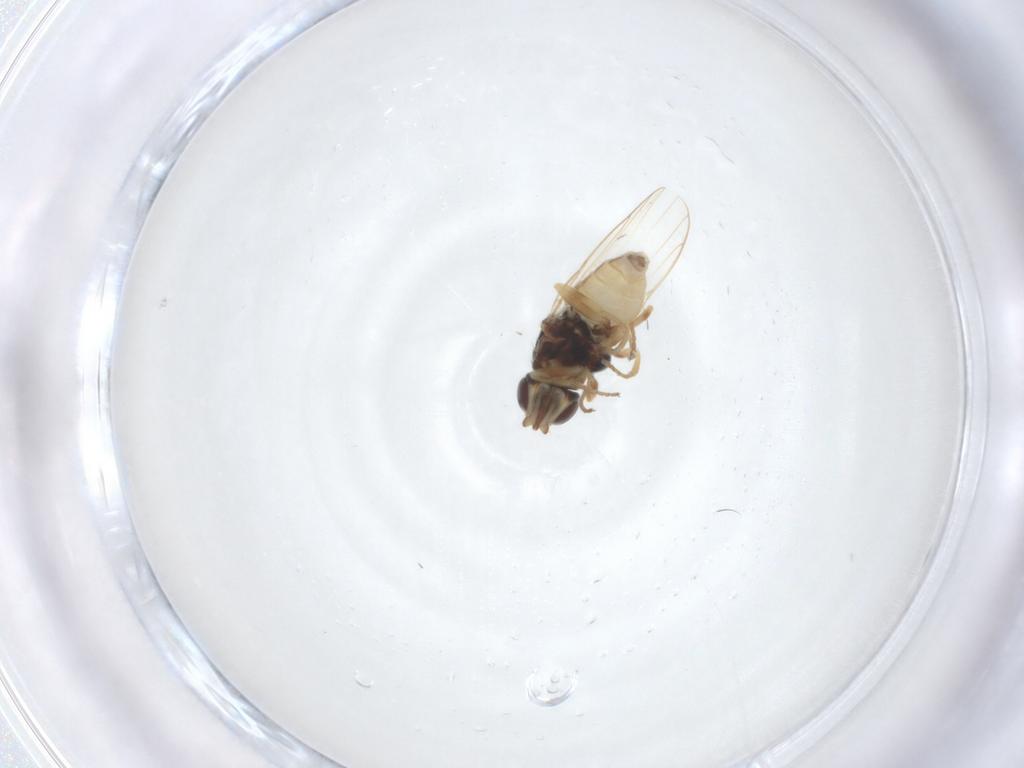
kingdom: Animalia
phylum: Arthropoda
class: Insecta
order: Diptera
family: Chloropidae
